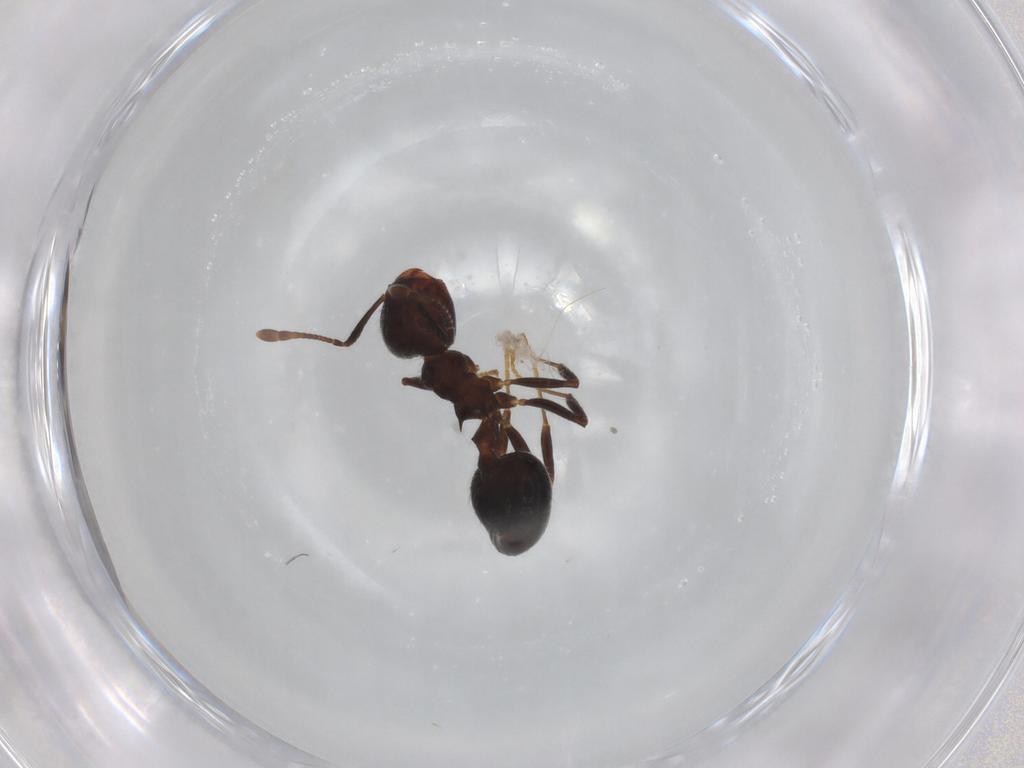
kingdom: Animalia
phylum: Arthropoda
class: Insecta
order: Hymenoptera
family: Formicidae
